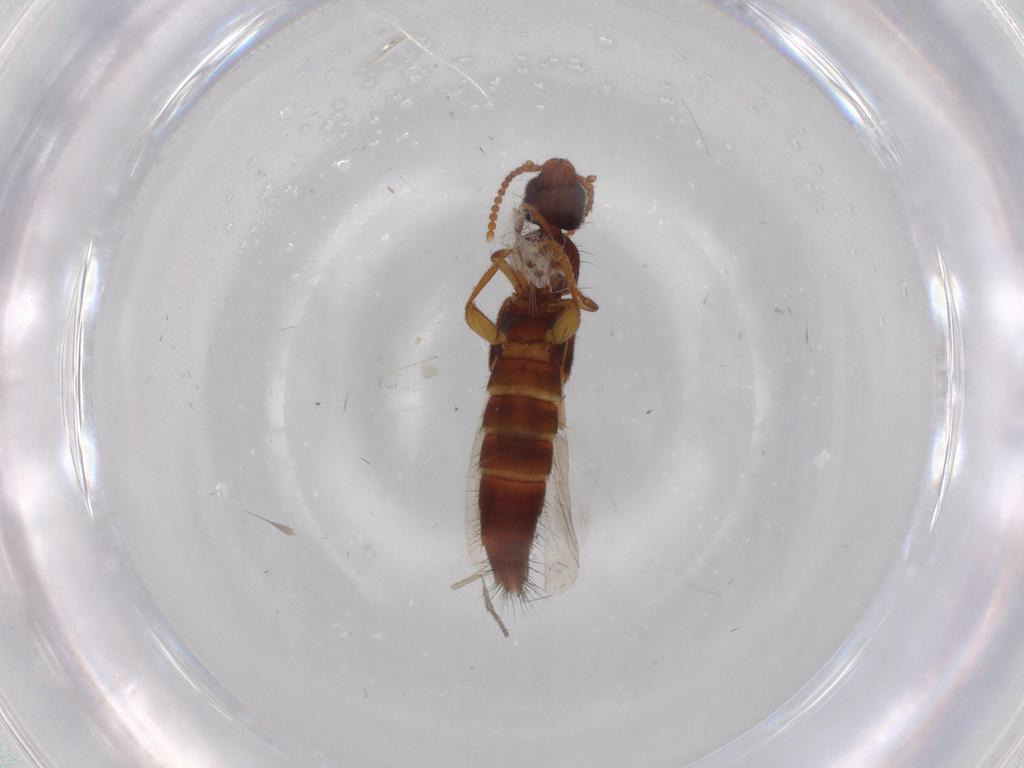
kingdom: Animalia
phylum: Arthropoda
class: Insecta
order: Coleoptera
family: Staphylinidae
